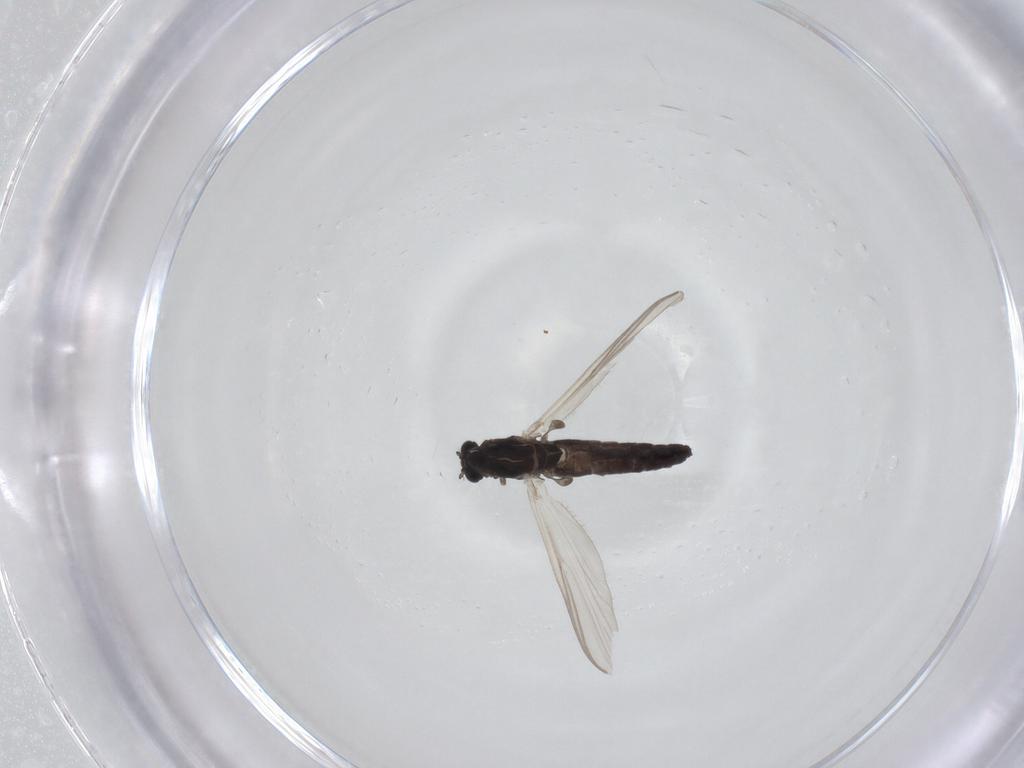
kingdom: Animalia
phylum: Arthropoda
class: Insecta
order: Diptera
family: Chironomidae
